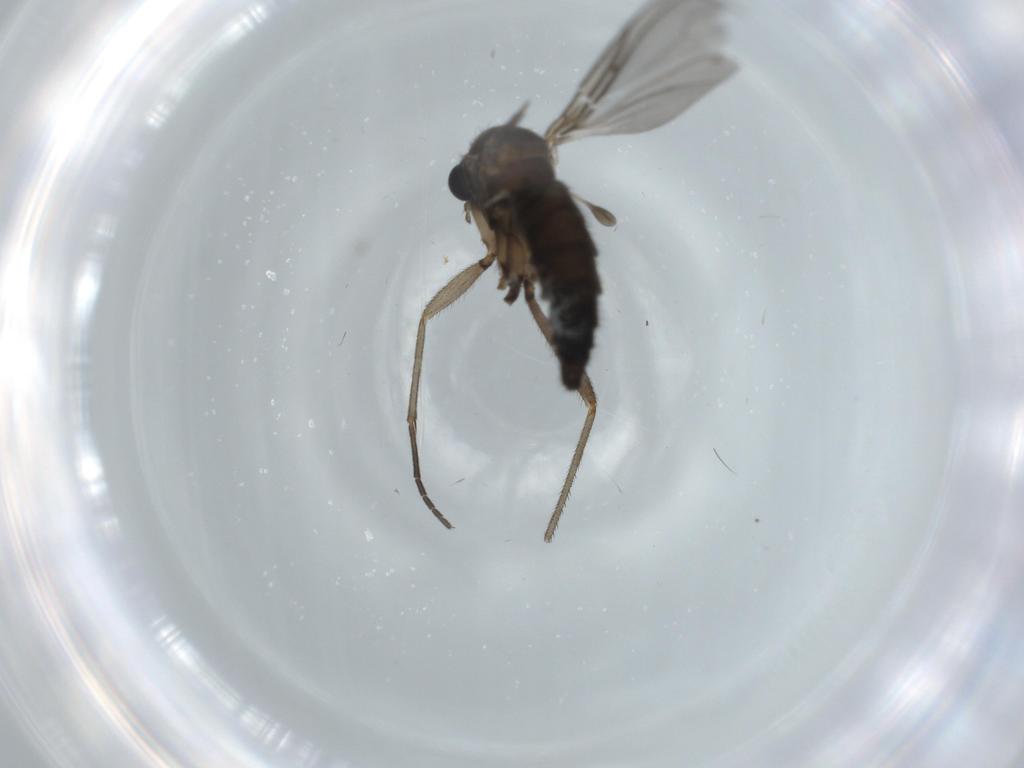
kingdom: Animalia
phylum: Arthropoda
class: Insecta
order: Diptera
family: Sciaridae
